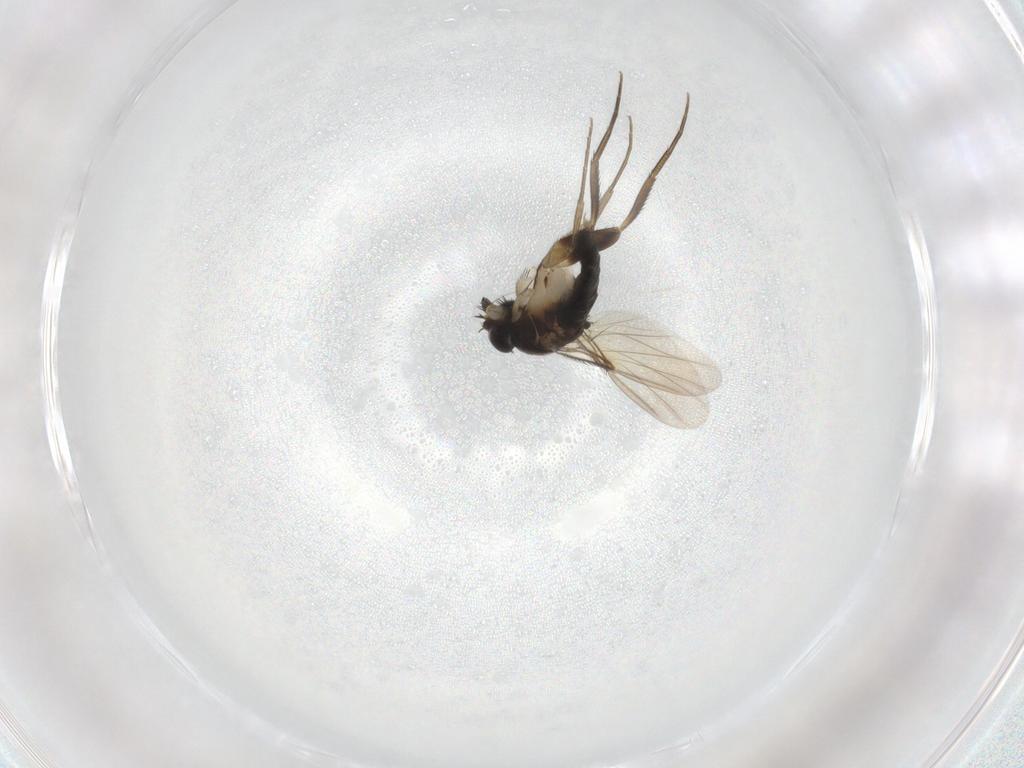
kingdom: Animalia
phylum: Arthropoda
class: Insecta
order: Diptera
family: Phoridae
